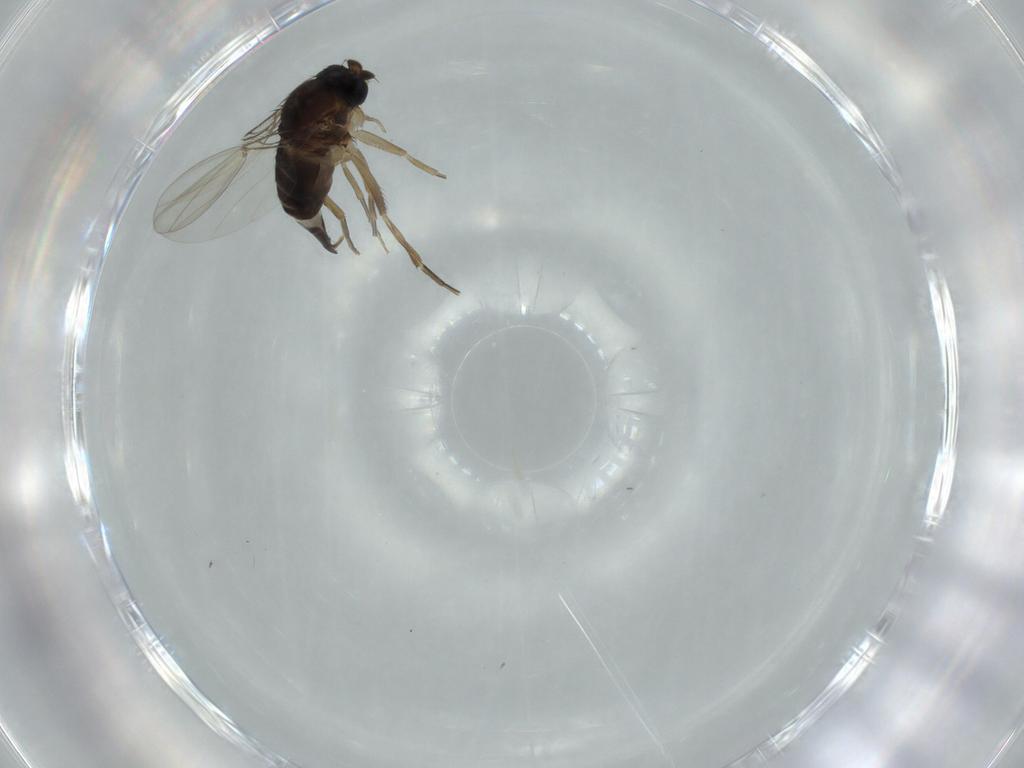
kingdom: Animalia
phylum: Arthropoda
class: Insecta
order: Diptera
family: Phoridae
